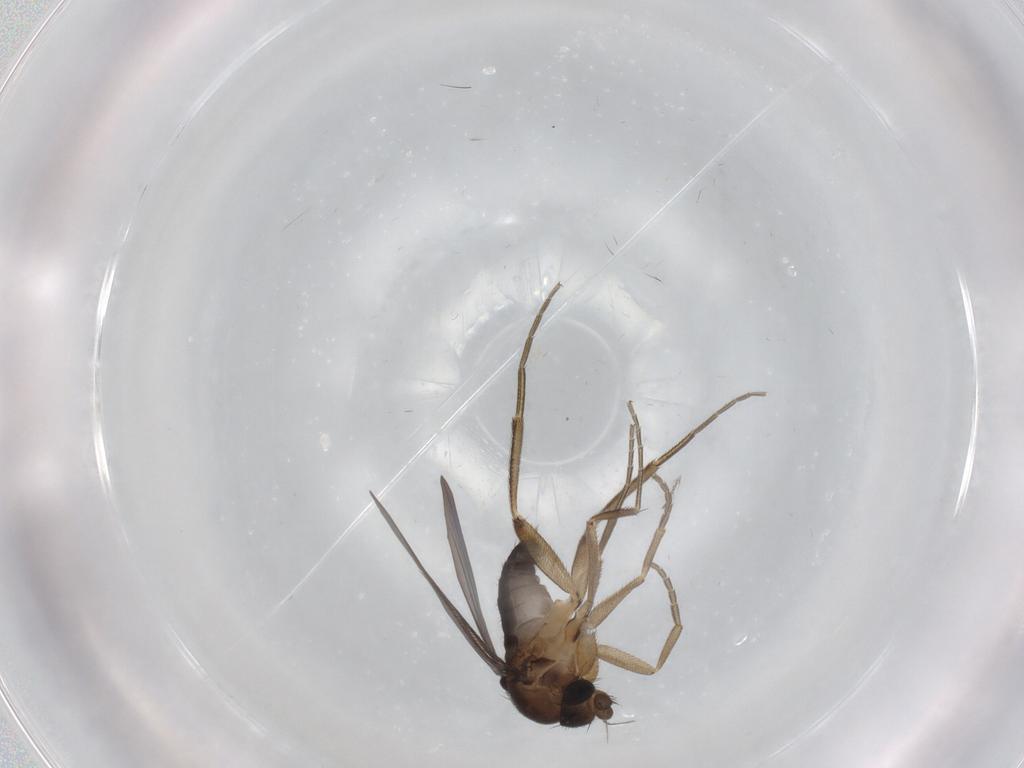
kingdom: Animalia
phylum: Arthropoda
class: Insecta
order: Diptera
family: Phoridae
